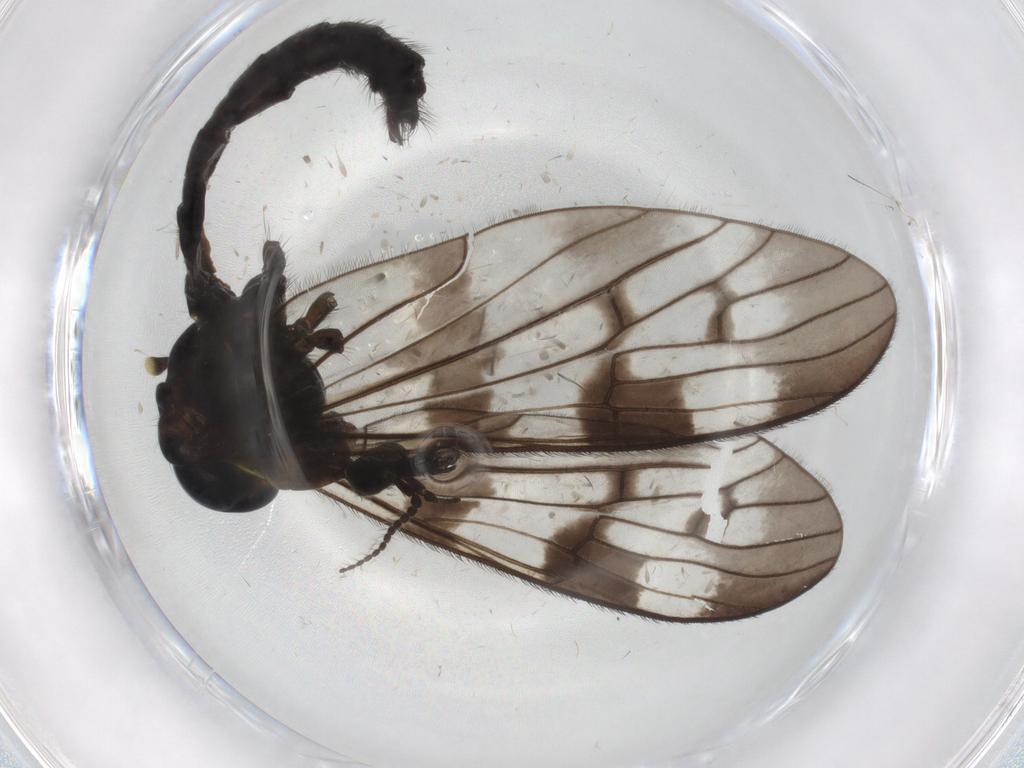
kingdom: Animalia
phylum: Arthropoda
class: Insecta
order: Diptera
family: Limoniidae
